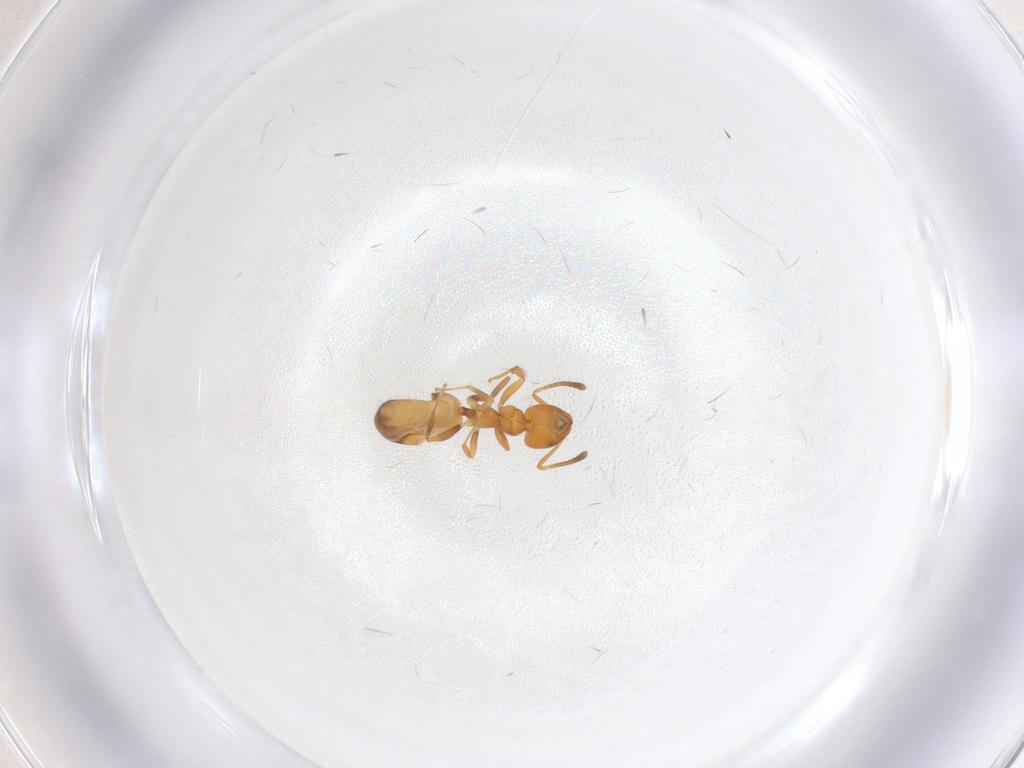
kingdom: Animalia
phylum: Arthropoda
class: Insecta
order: Hymenoptera
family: Formicidae
